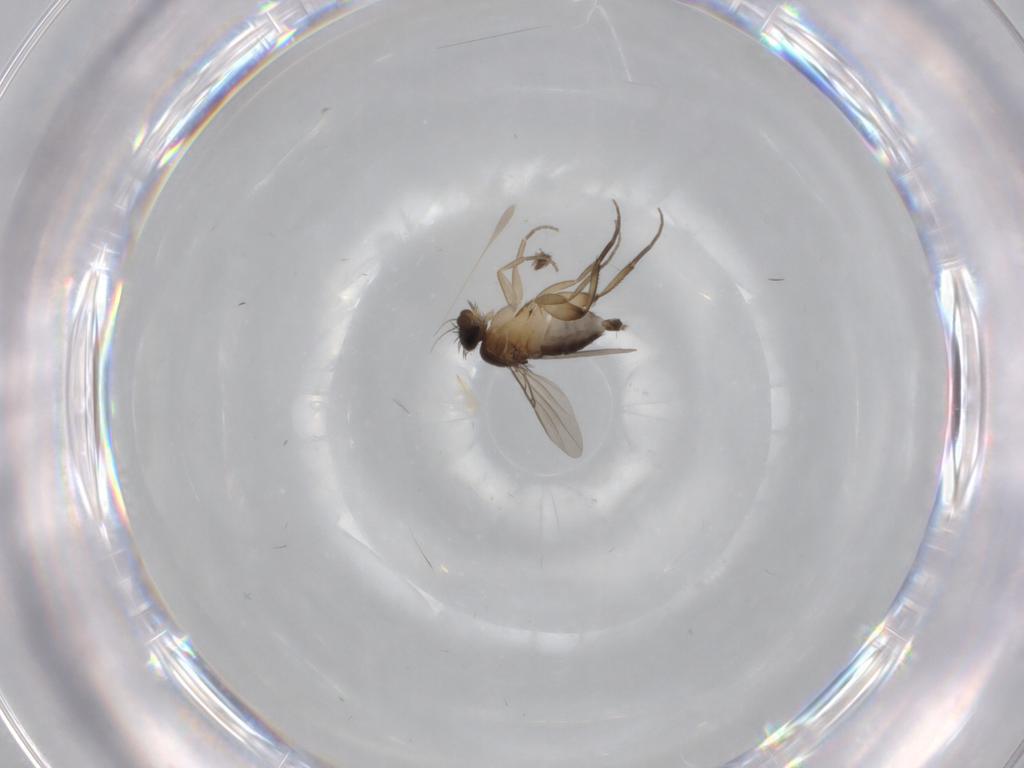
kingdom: Animalia
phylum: Arthropoda
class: Insecta
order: Diptera
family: Phoridae
